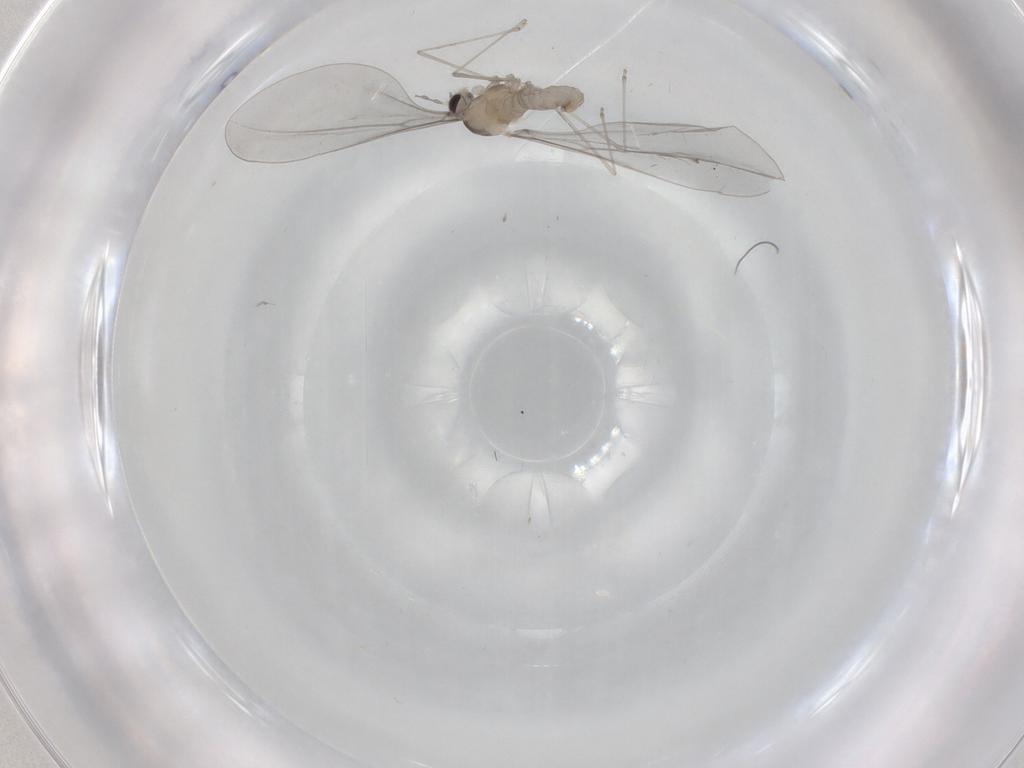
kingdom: Animalia
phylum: Arthropoda
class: Insecta
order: Diptera
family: Cecidomyiidae
